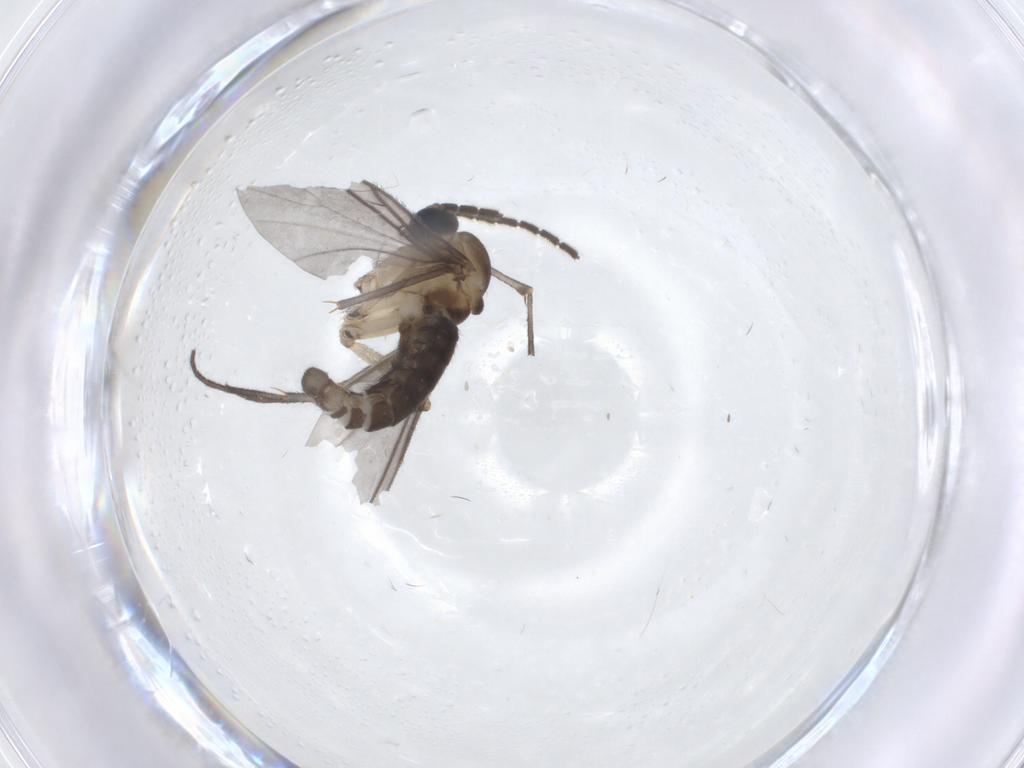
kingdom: Animalia
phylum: Arthropoda
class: Insecta
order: Diptera
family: Sciaridae
